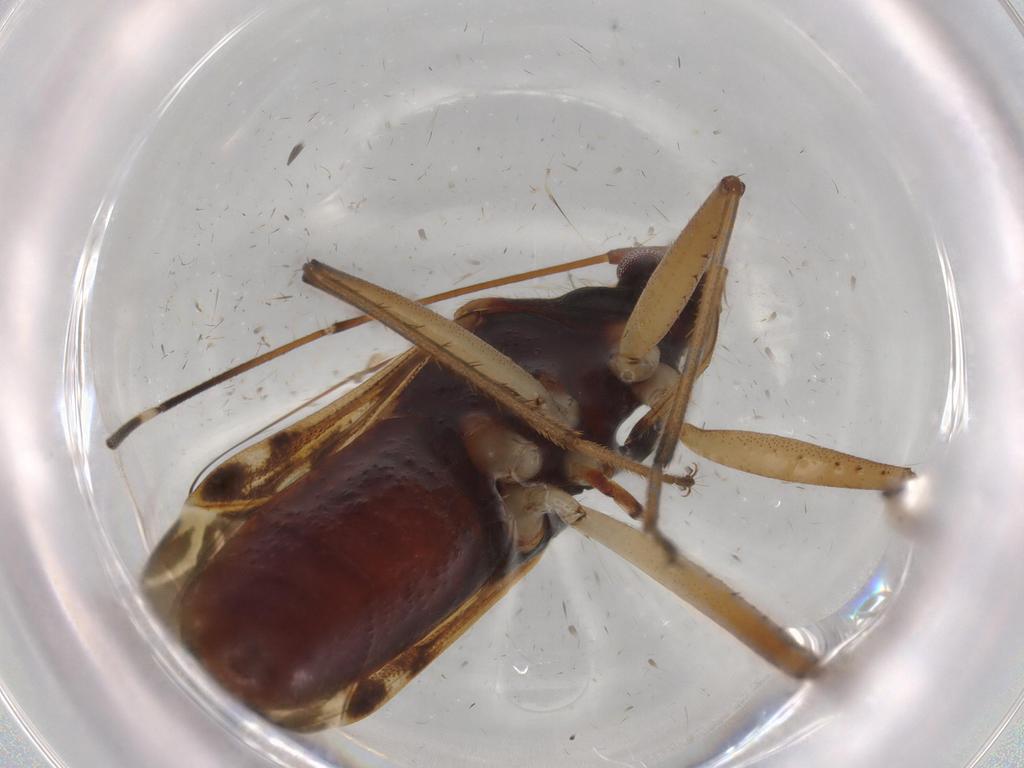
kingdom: Animalia
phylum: Arthropoda
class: Insecta
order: Hemiptera
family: Rhyparochromidae
